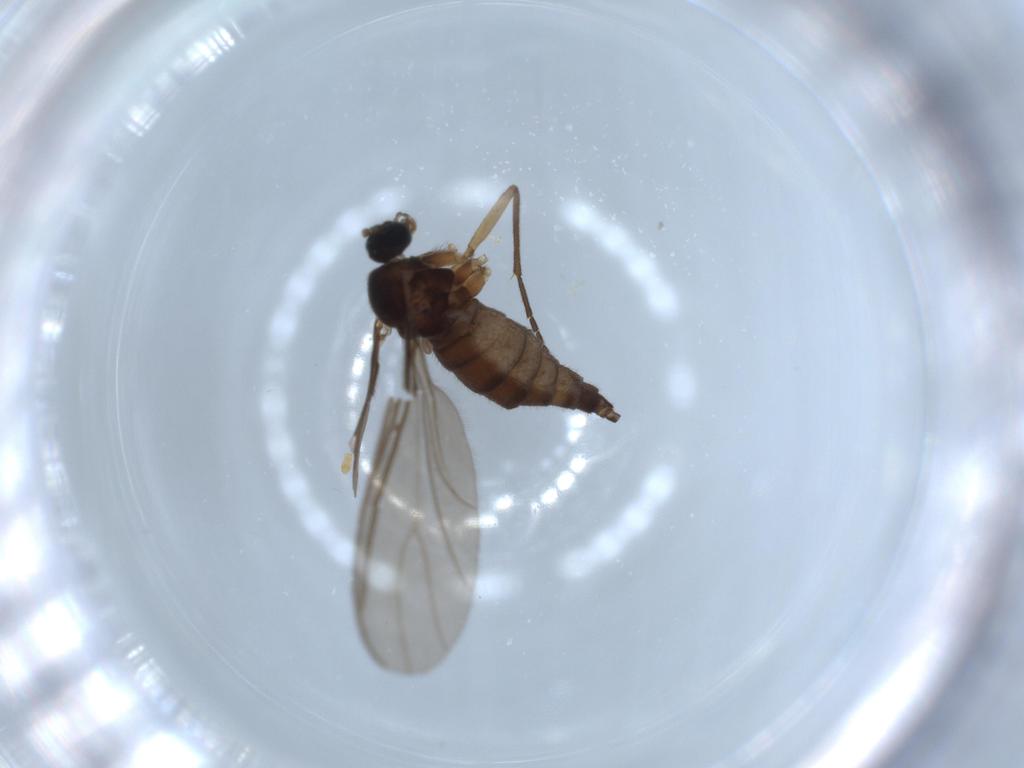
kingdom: Animalia
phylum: Arthropoda
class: Insecta
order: Diptera
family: Sciaridae
